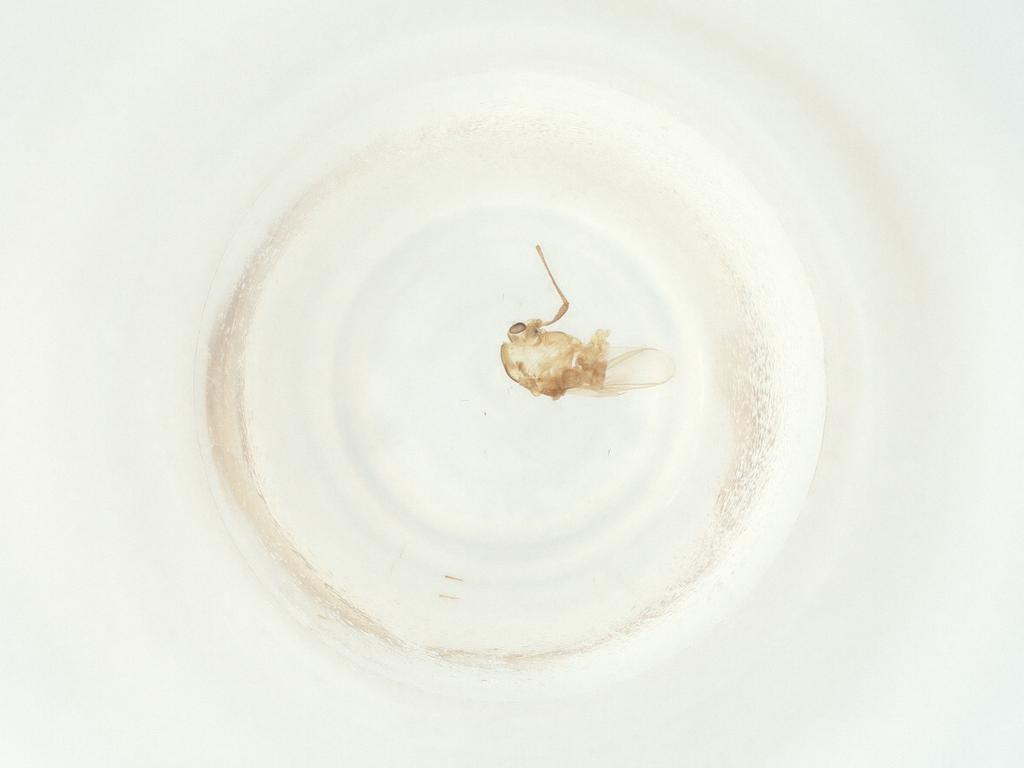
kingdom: Animalia
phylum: Arthropoda
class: Insecta
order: Diptera
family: Chironomidae
